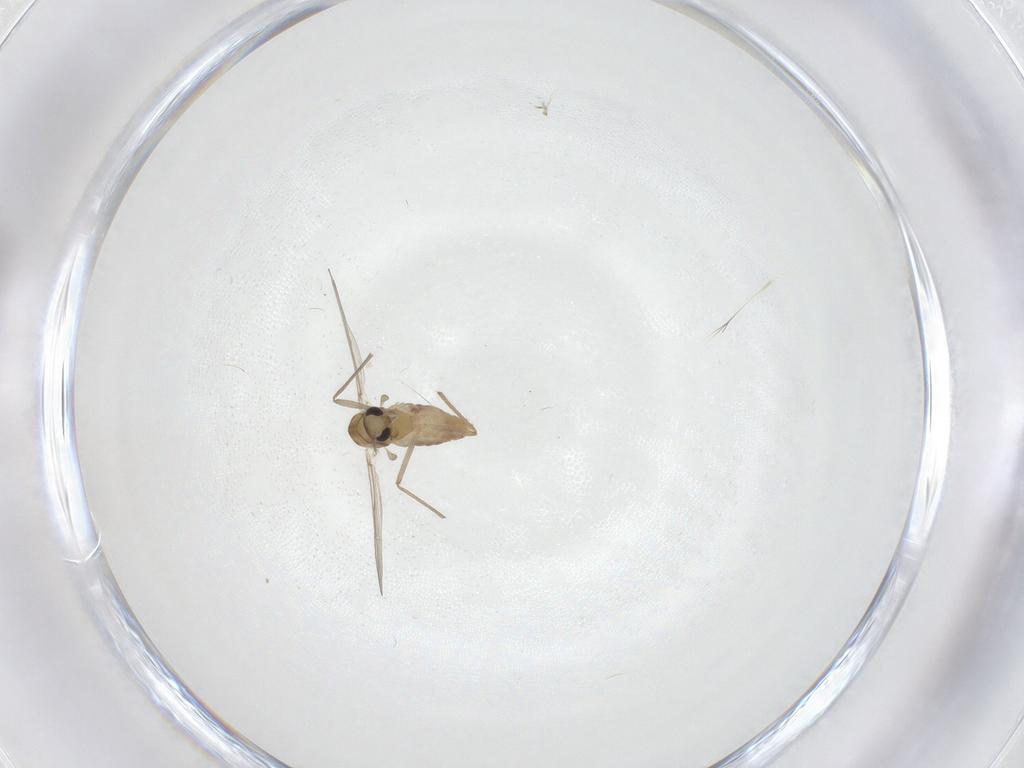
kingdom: Animalia
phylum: Arthropoda
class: Insecta
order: Diptera
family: Chironomidae
